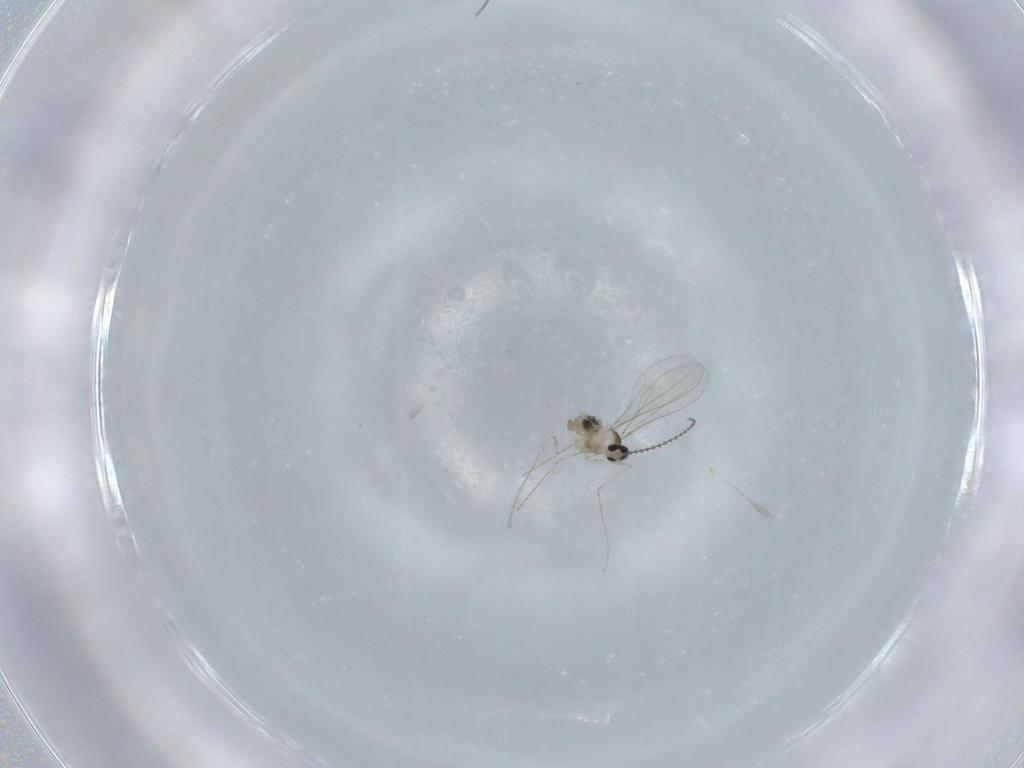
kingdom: Animalia
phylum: Arthropoda
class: Insecta
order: Diptera
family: Cecidomyiidae
